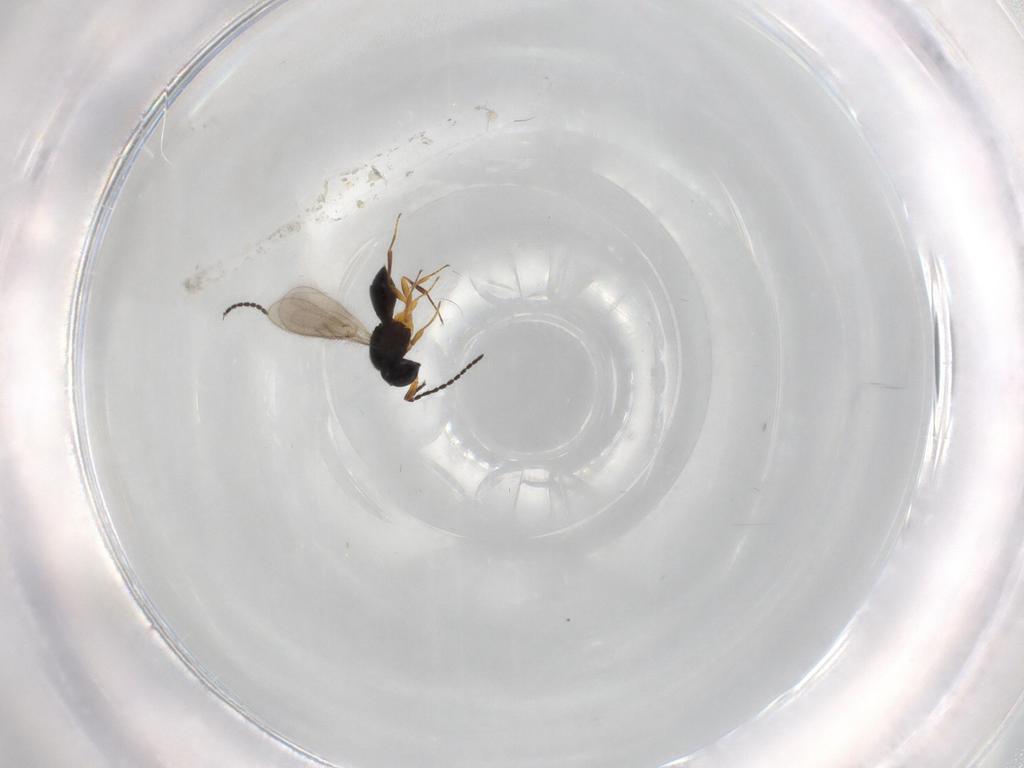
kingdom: Animalia
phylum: Arthropoda
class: Insecta
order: Hymenoptera
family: Scelionidae
